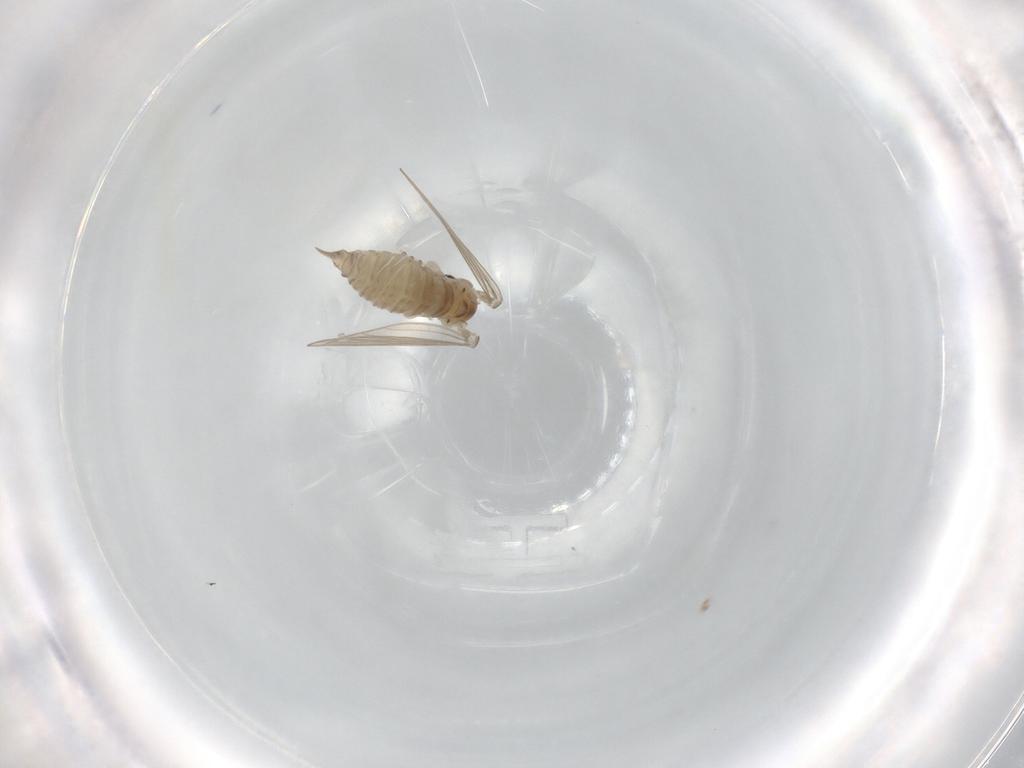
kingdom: Animalia
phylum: Arthropoda
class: Insecta
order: Diptera
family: Psychodidae
